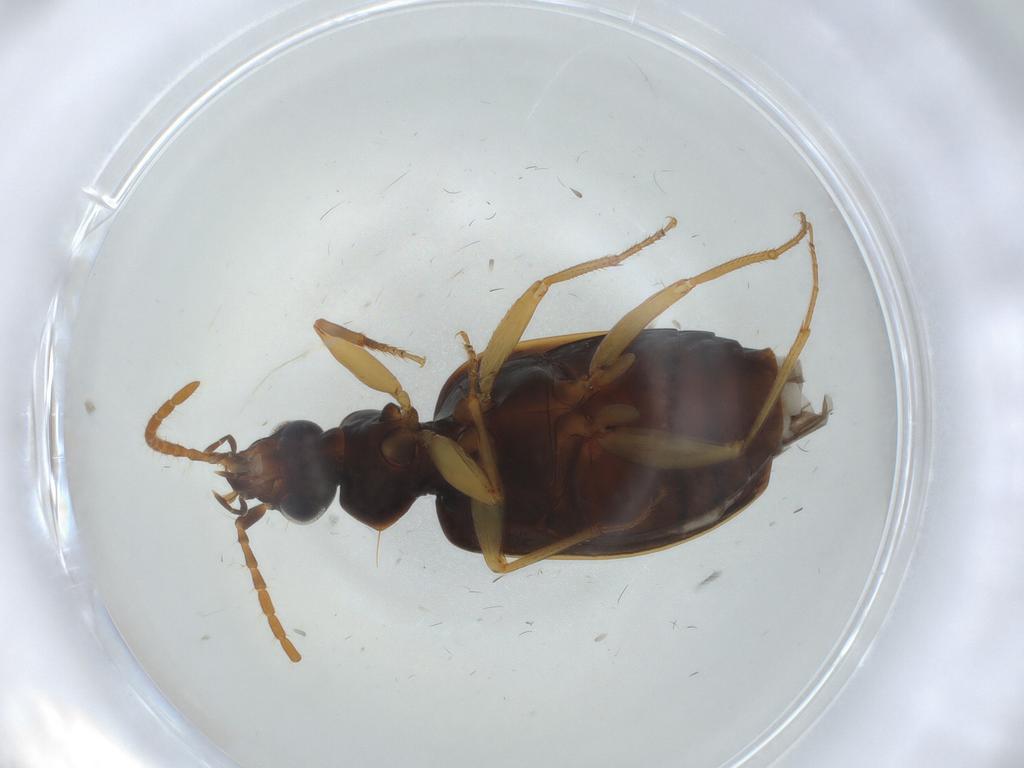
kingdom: Animalia
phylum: Arthropoda
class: Insecta
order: Coleoptera
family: Carabidae
